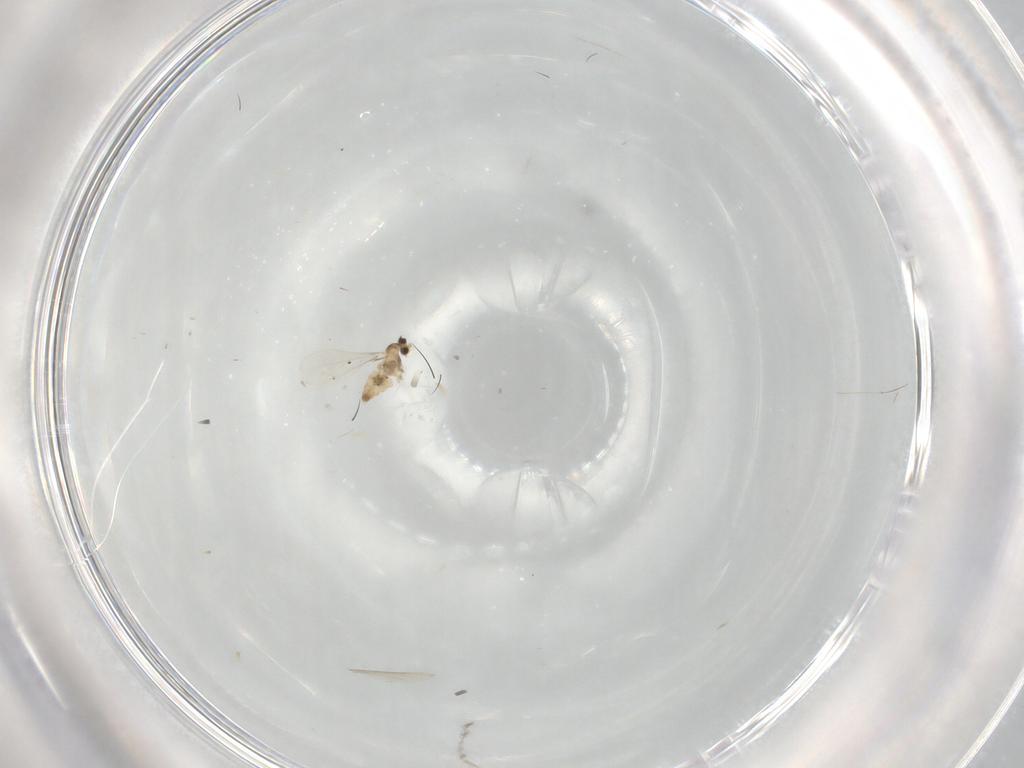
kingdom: Animalia
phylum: Arthropoda
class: Insecta
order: Diptera
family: Cecidomyiidae
